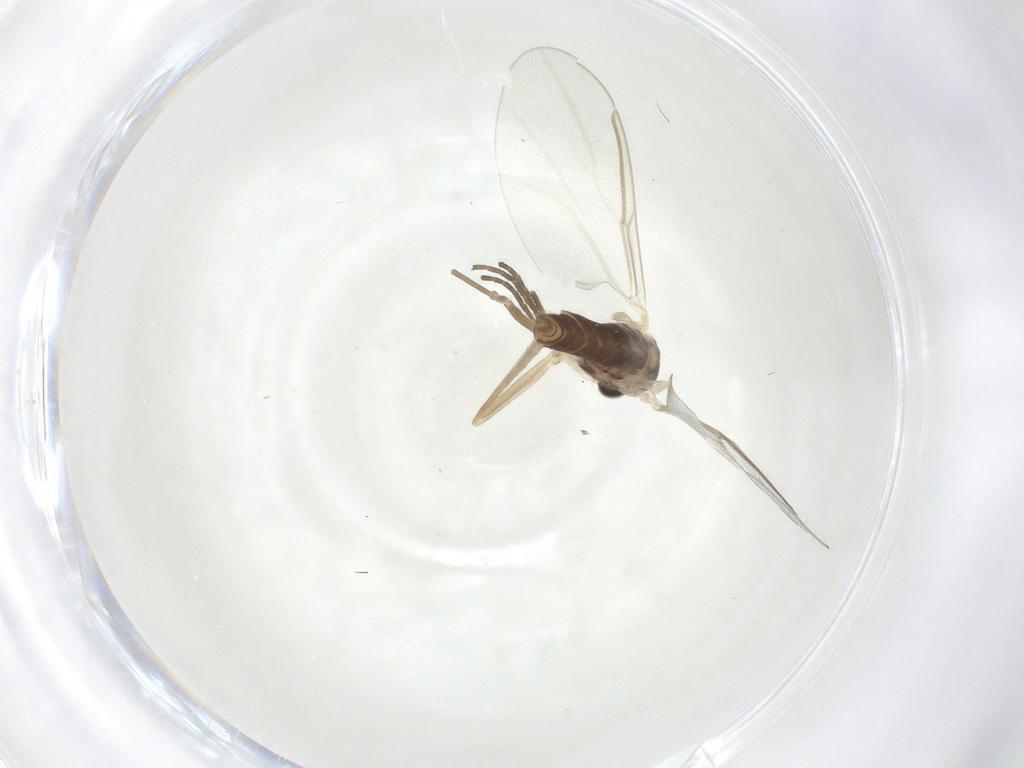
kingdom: Animalia
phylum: Arthropoda
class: Insecta
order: Diptera
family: Cecidomyiidae
